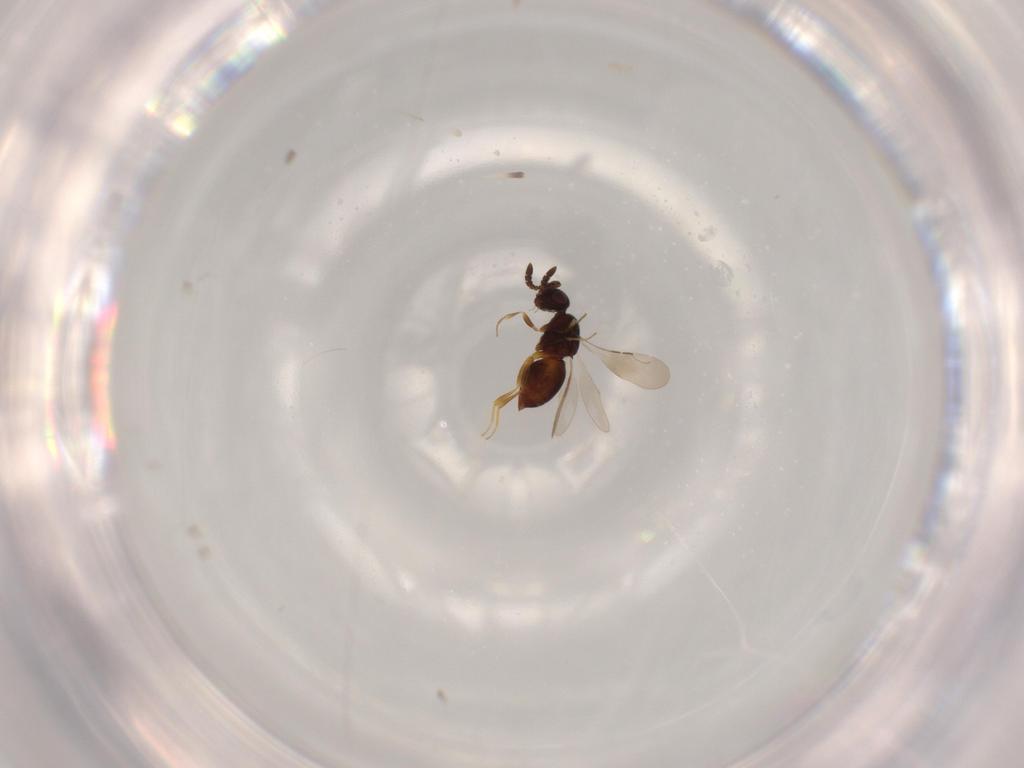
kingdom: Animalia
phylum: Arthropoda
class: Insecta
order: Hymenoptera
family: Ceraphronidae
